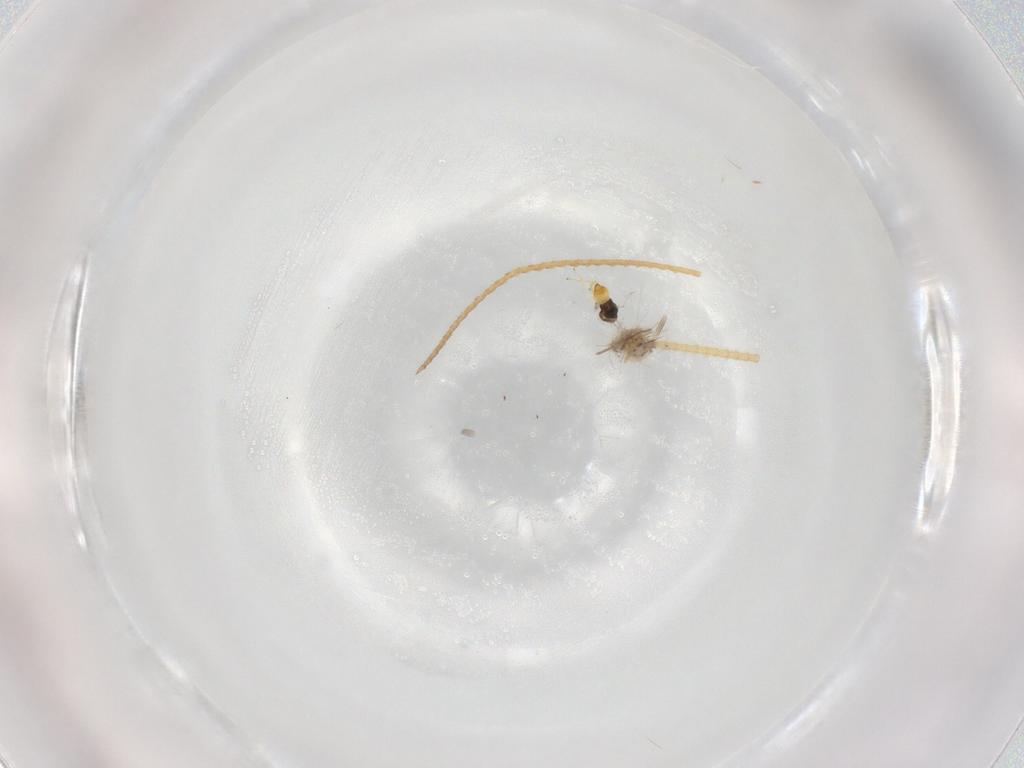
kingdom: Animalia
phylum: Arthropoda
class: Insecta
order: Hymenoptera
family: Eulophidae
